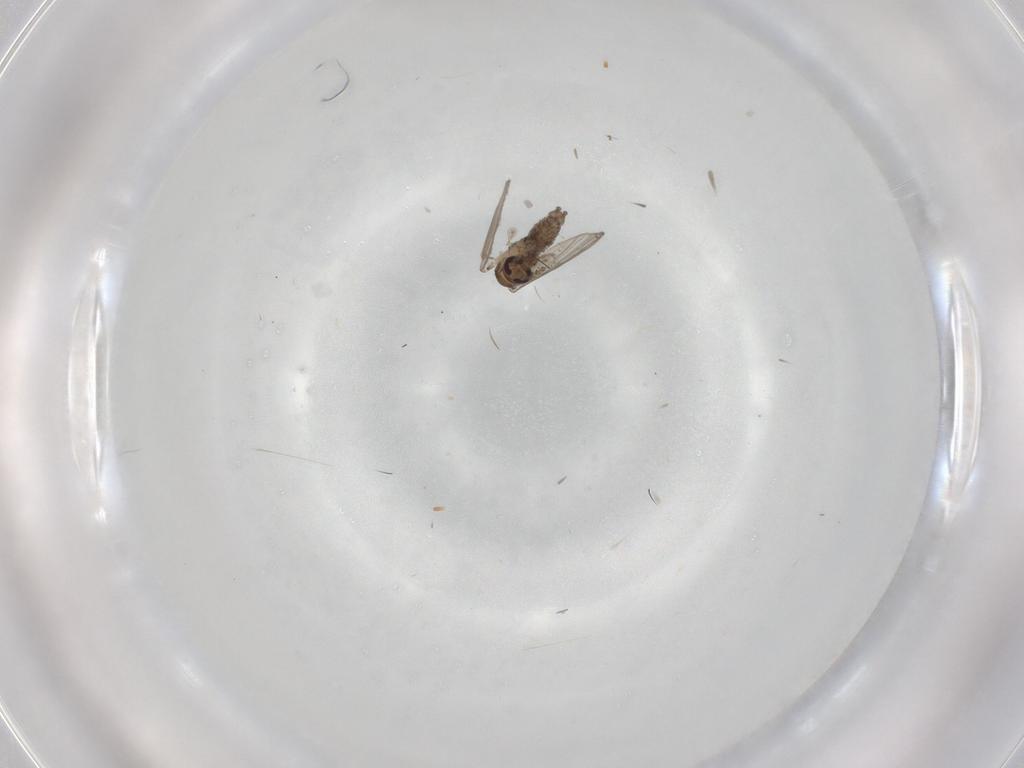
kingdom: Animalia
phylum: Arthropoda
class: Insecta
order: Diptera
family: Psychodidae
